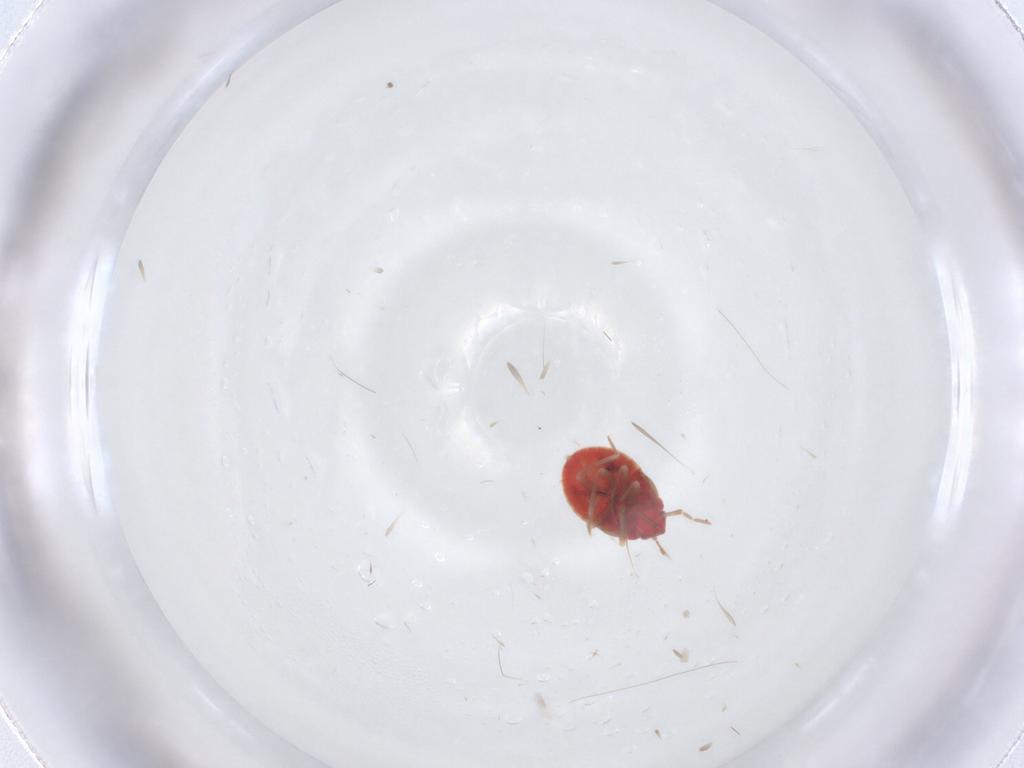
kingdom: Animalia
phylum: Arthropoda
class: Insecta
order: Hemiptera
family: Anthocoridae
